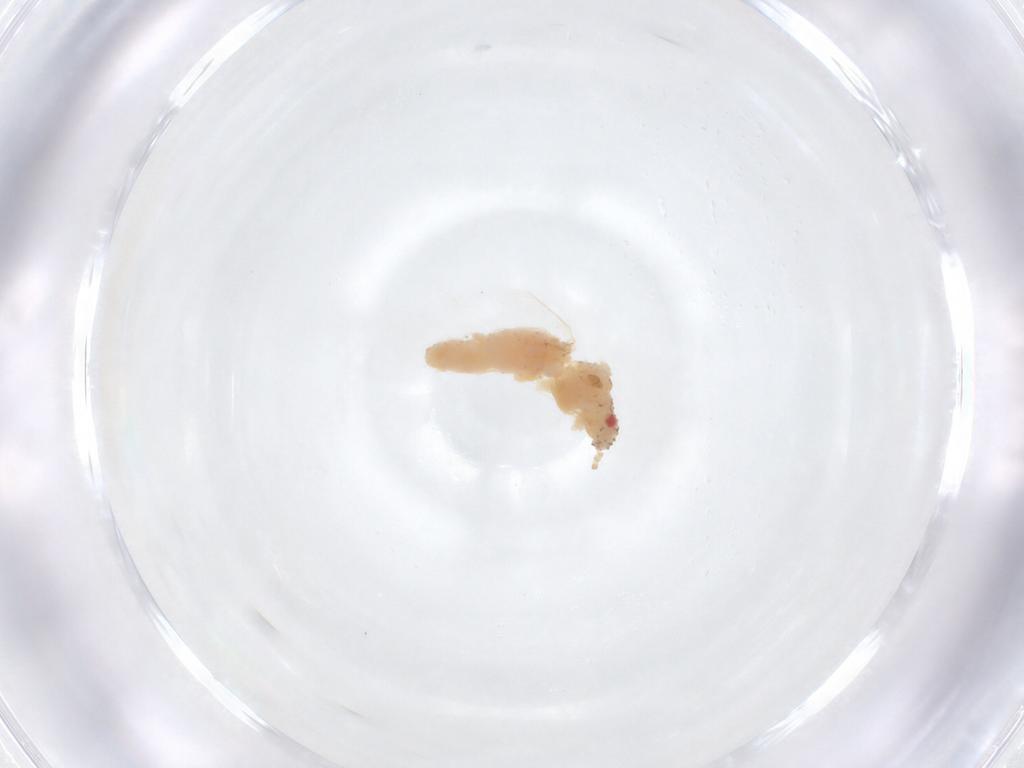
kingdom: Animalia
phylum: Arthropoda
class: Insecta
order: Hemiptera
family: Aphididae
